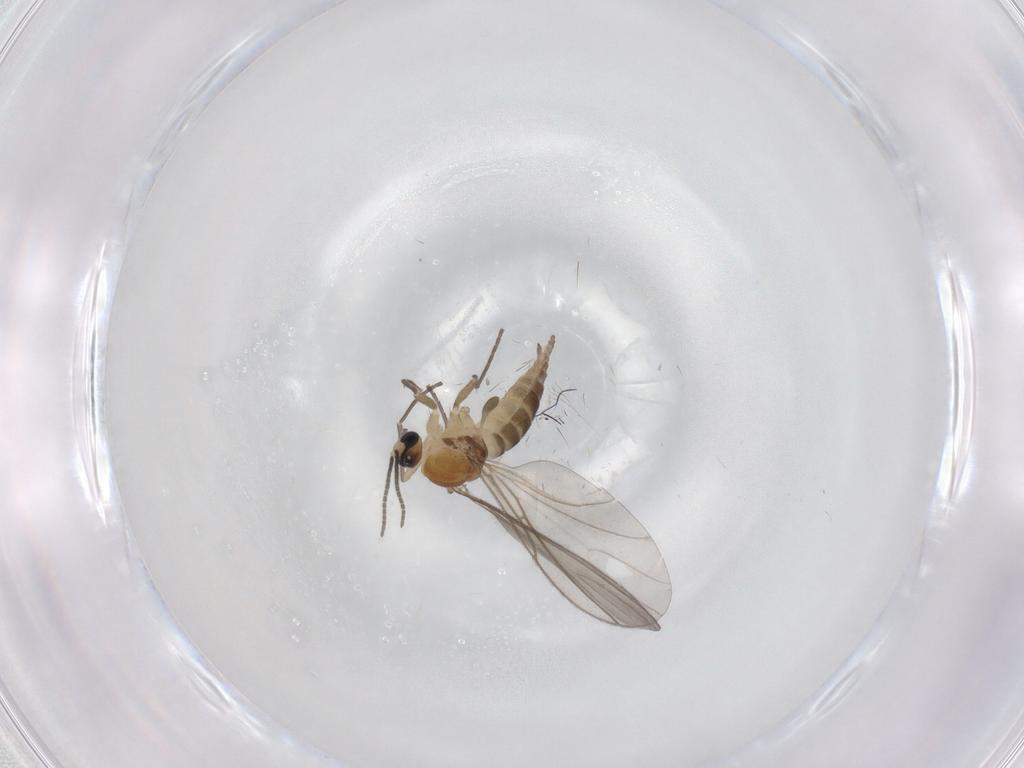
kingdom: Animalia
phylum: Arthropoda
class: Insecta
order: Diptera
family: Sciaridae
